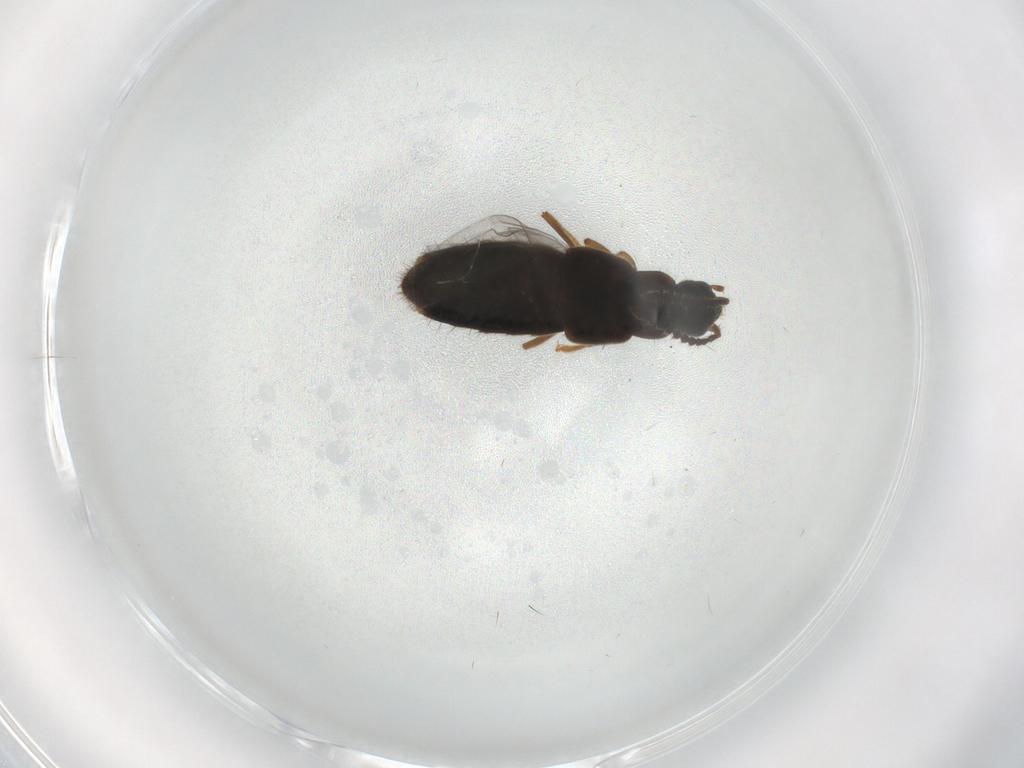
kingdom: Animalia
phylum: Arthropoda
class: Insecta
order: Coleoptera
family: Staphylinidae
